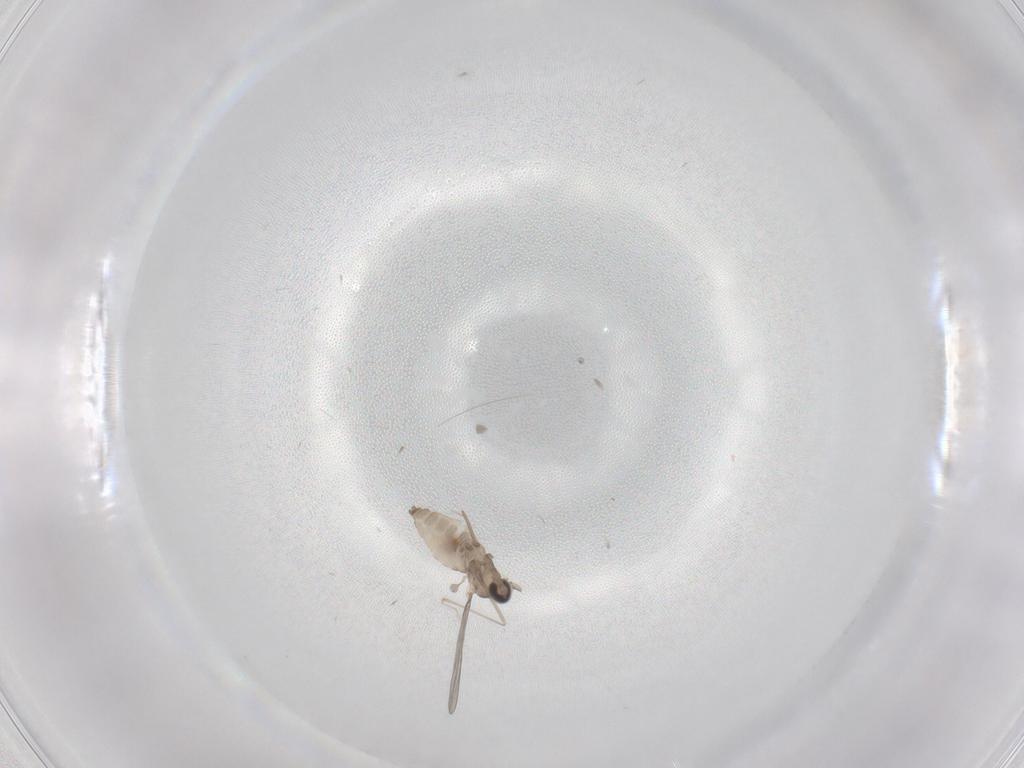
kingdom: Animalia
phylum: Arthropoda
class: Insecta
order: Diptera
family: Cecidomyiidae
